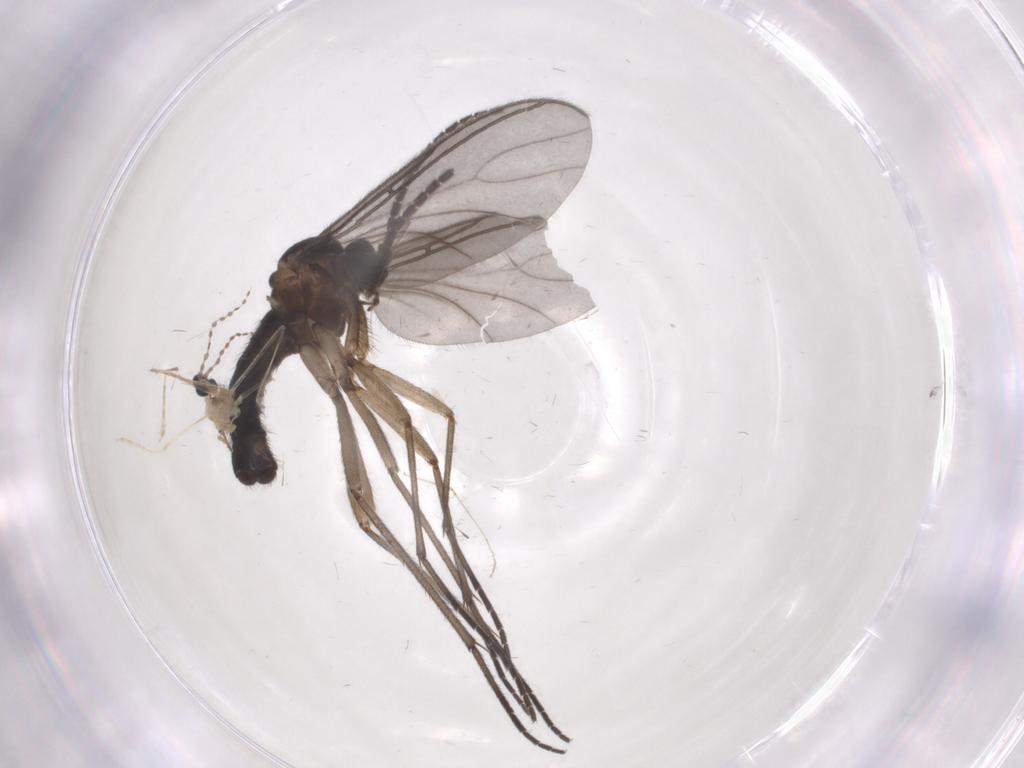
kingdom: Animalia
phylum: Arthropoda
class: Insecta
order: Diptera
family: Sciaridae
